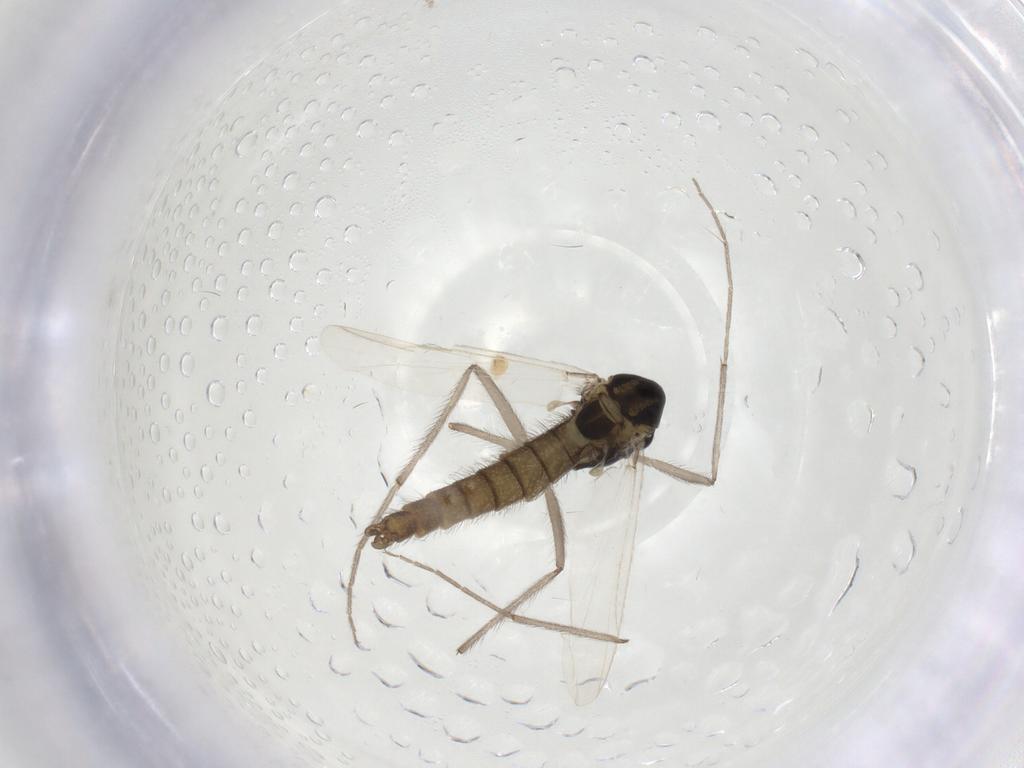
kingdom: Animalia
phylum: Arthropoda
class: Insecta
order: Diptera
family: Chironomidae
